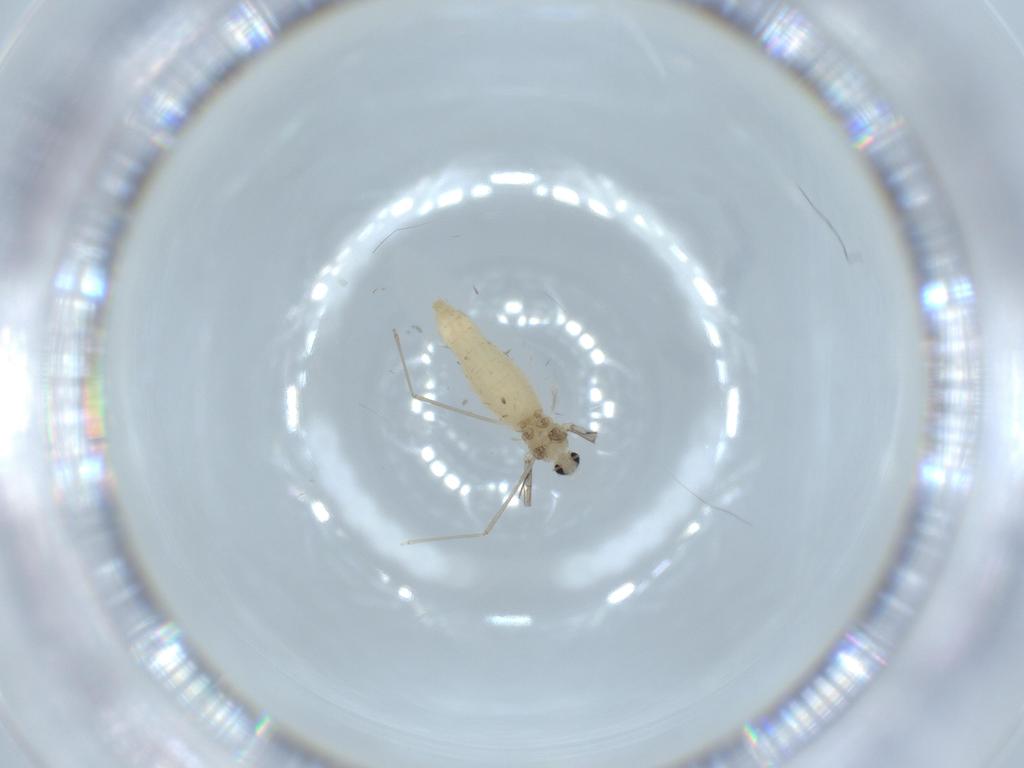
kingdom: Animalia
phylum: Arthropoda
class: Insecta
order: Diptera
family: Cecidomyiidae
